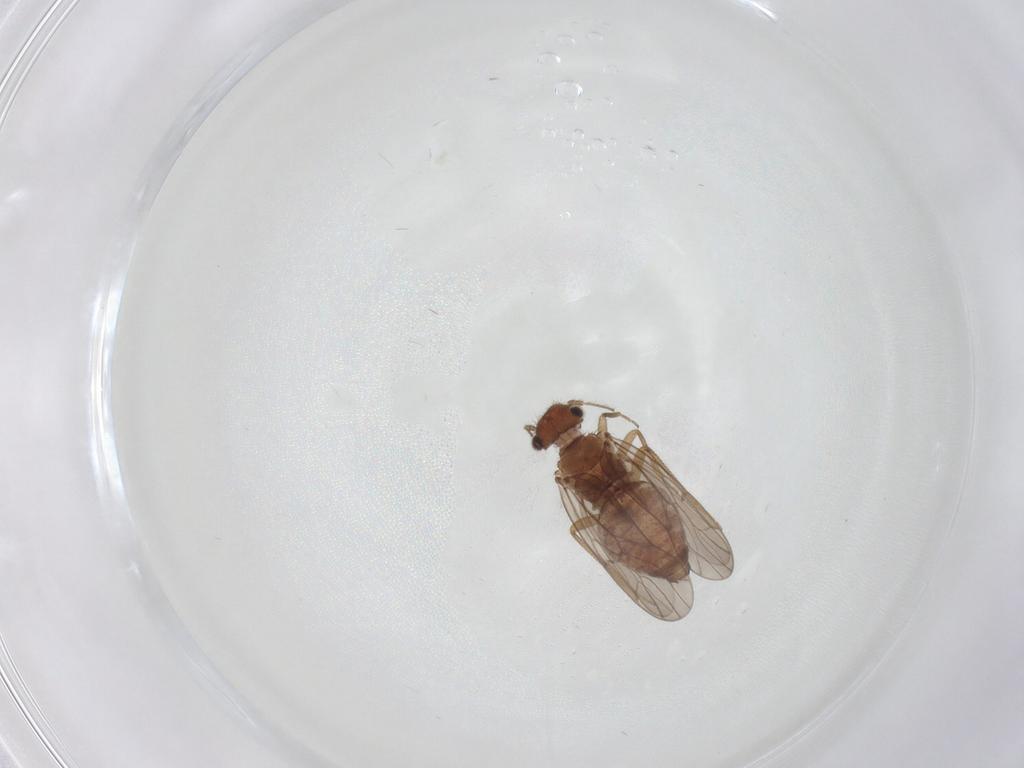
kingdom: Animalia
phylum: Arthropoda
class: Insecta
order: Psocodea
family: Ectopsocidae
